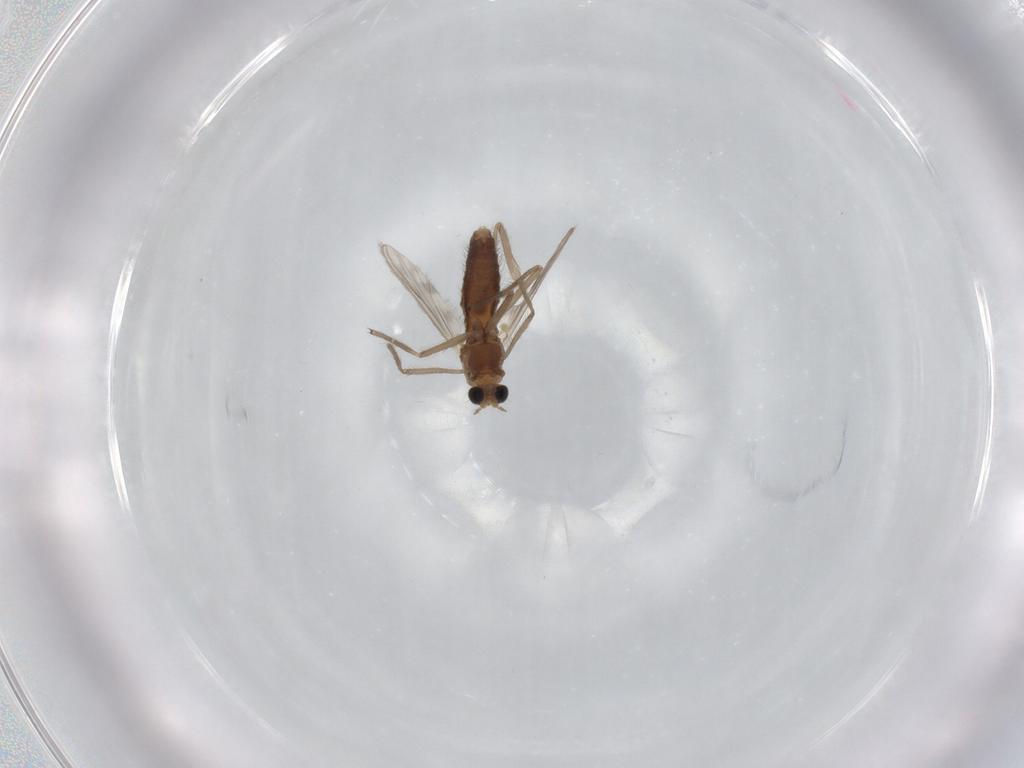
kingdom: Animalia
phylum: Arthropoda
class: Insecta
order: Diptera
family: Chironomidae
